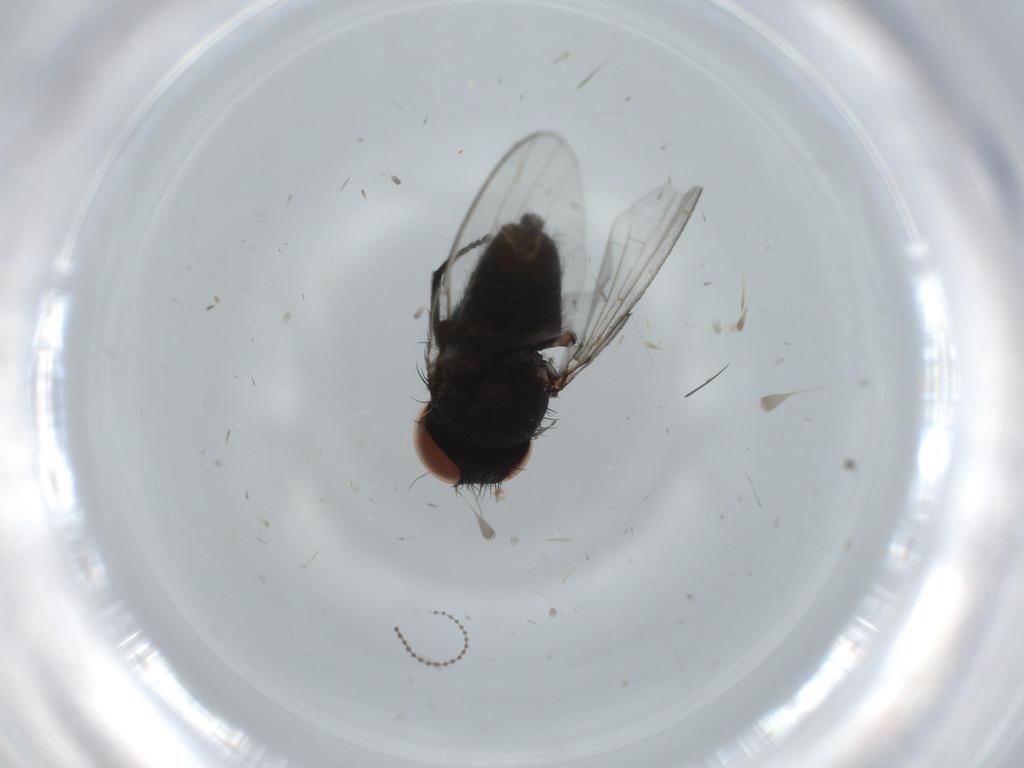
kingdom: Animalia
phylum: Arthropoda
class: Insecta
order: Diptera
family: Milichiidae
